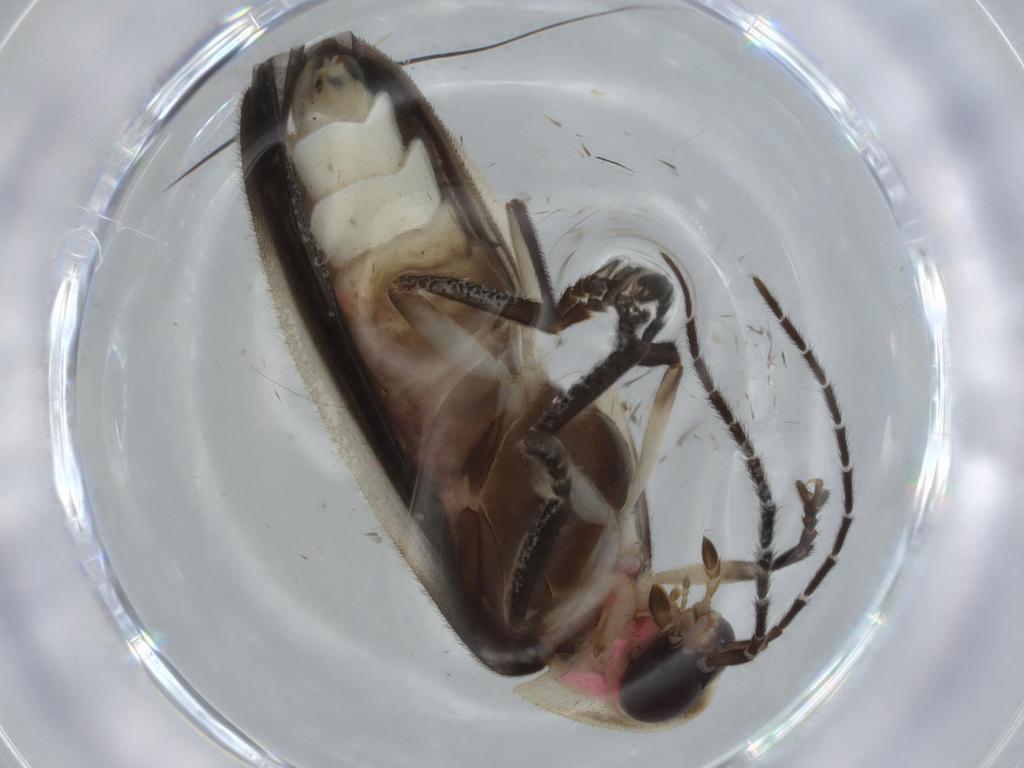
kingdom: Animalia
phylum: Arthropoda
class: Insecta
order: Coleoptera
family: Lampyridae
